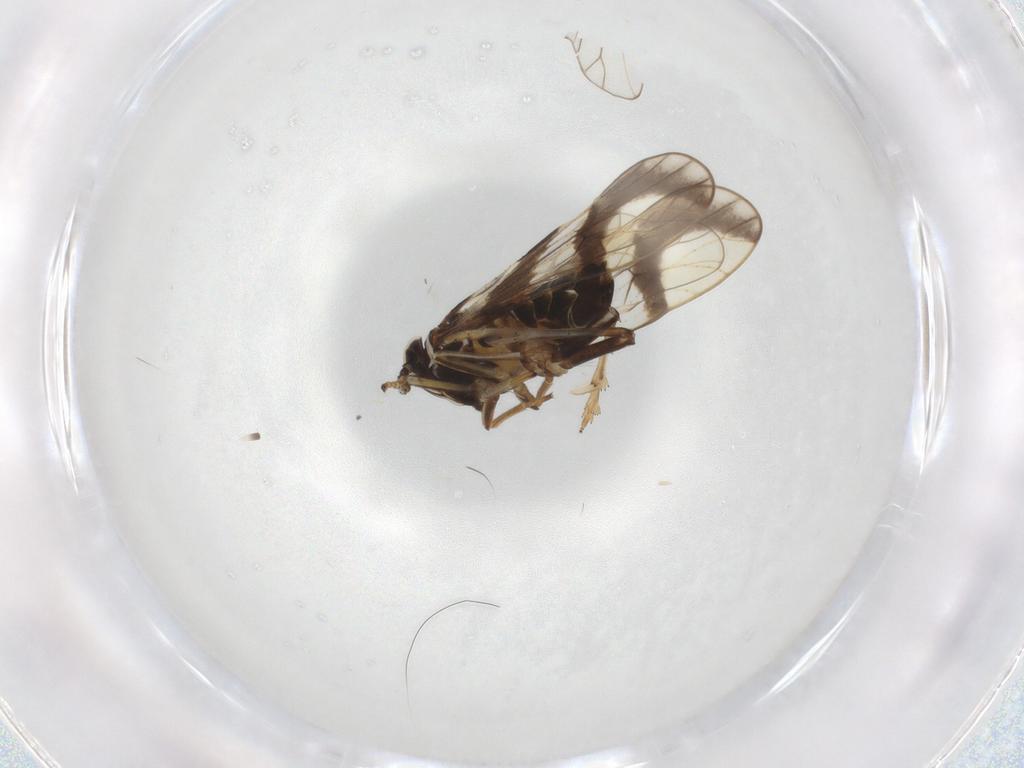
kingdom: Animalia
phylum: Arthropoda
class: Insecta
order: Hemiptera
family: Delphacidae
